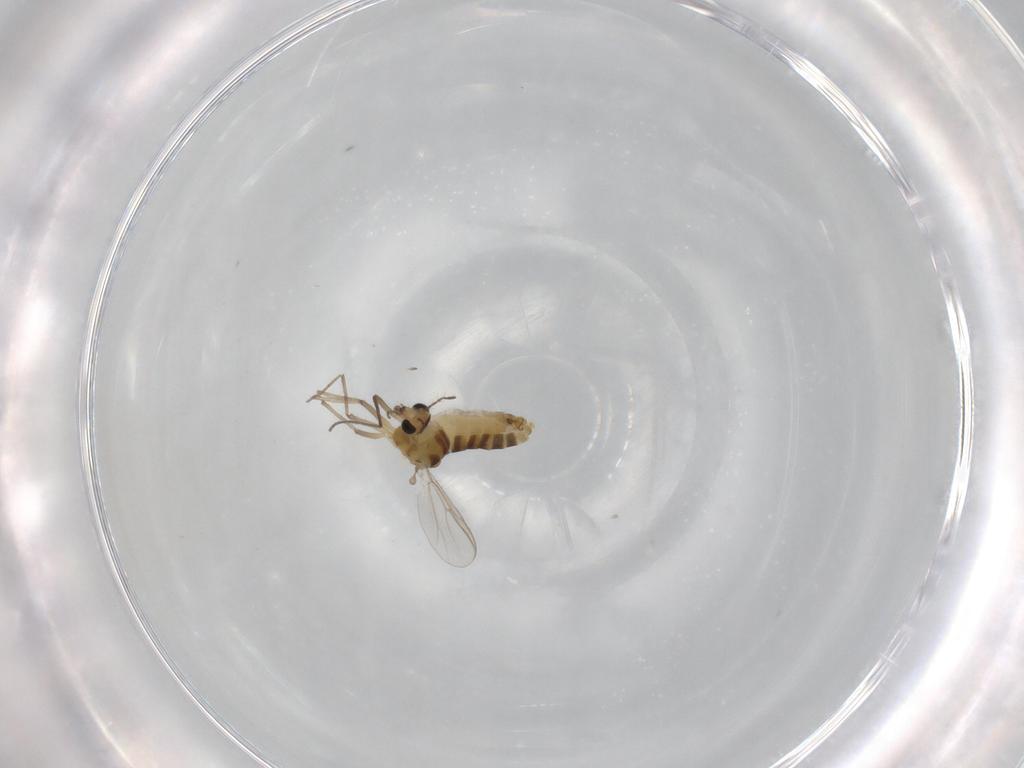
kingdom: Animalia
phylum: Arthropoda
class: Insecta
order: Diptera
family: Chironomidae
